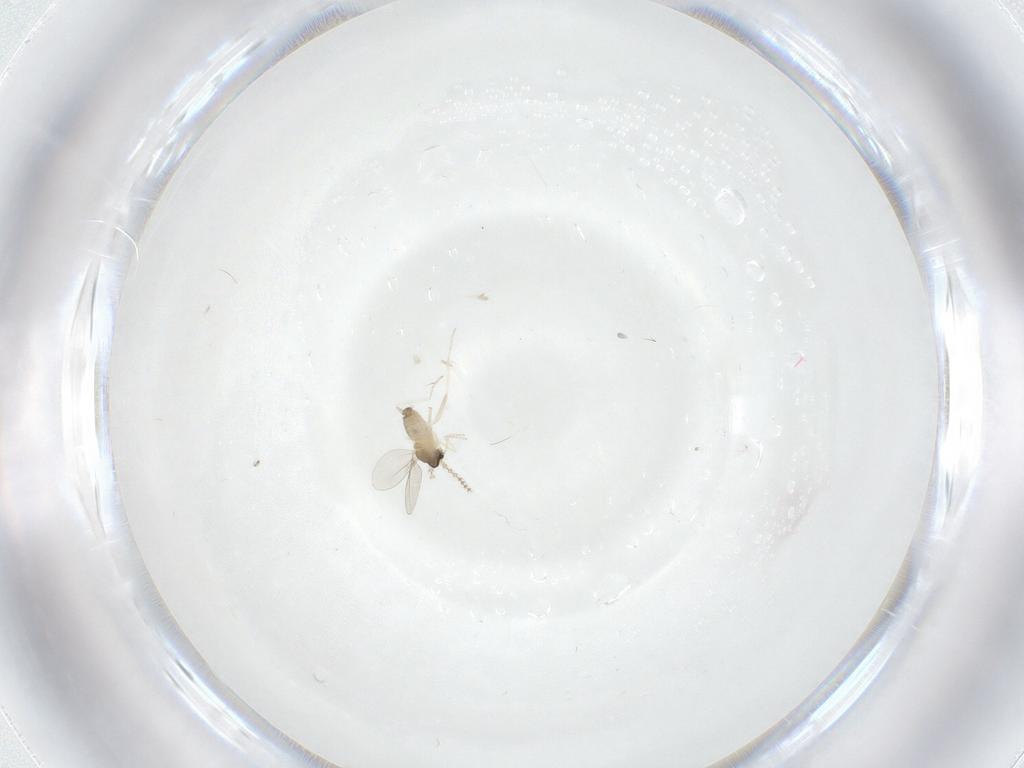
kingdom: Animalia
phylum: Arthropoda
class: Insecta
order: Diptera
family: Cecidomyiidae
